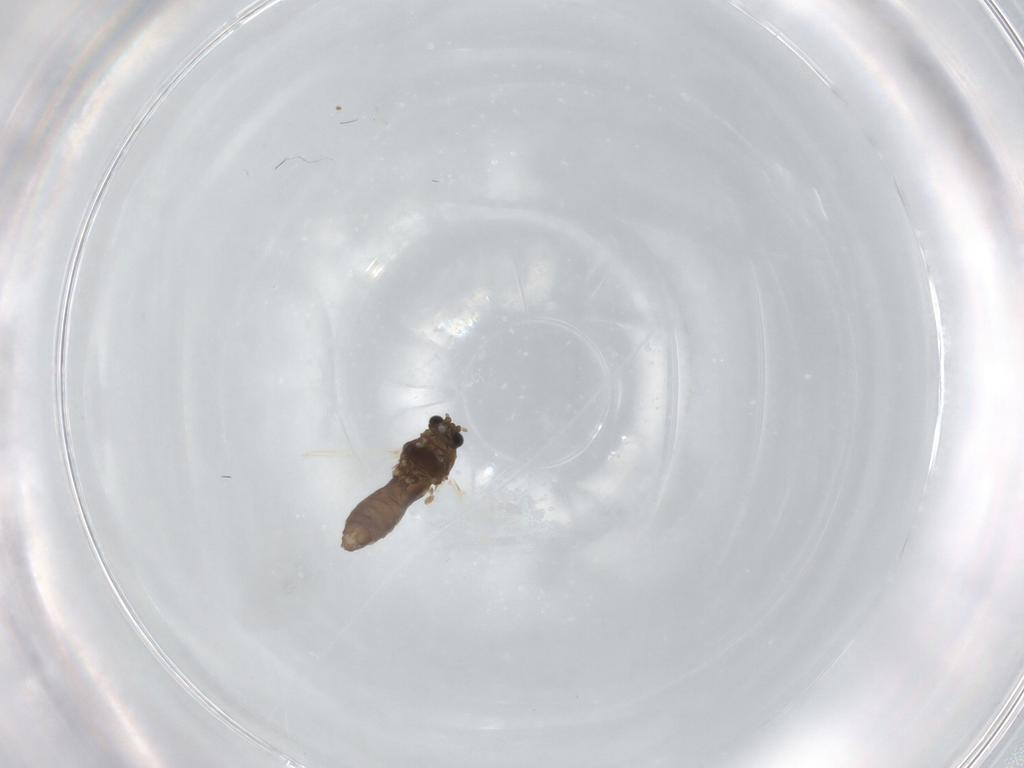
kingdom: Animalia
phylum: Arthropoda
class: Insecta
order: Diptera
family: Chironomidae
